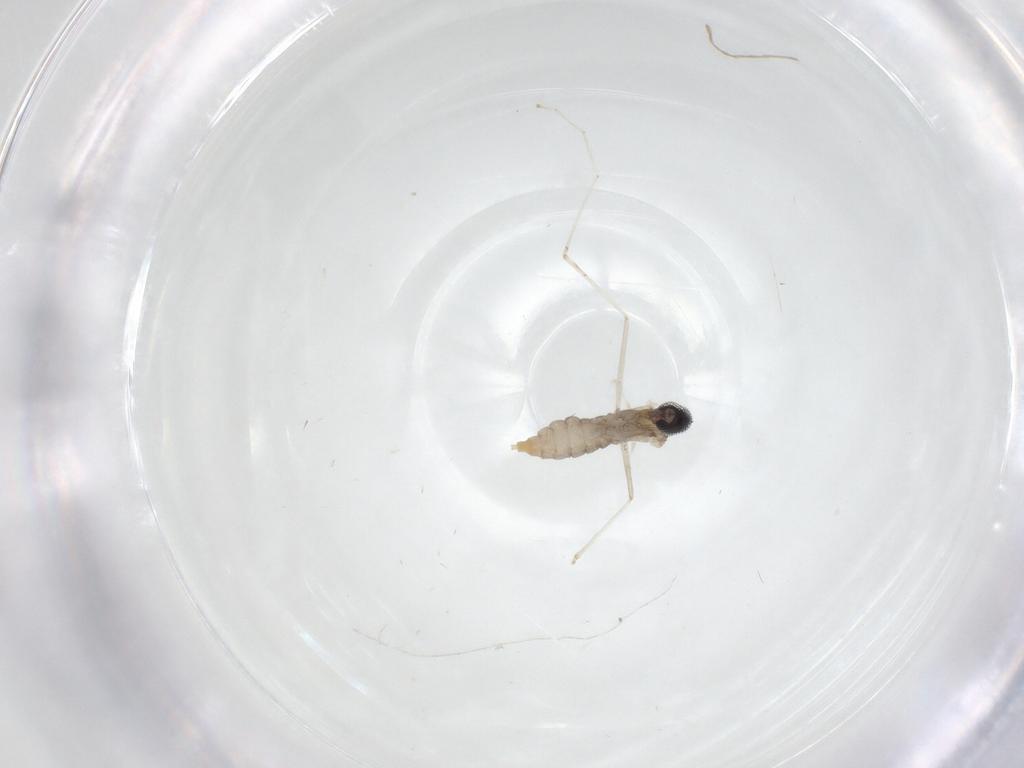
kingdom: Animalia
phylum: Arthropoda
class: Insecta
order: Diptera
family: Cecidomyiidae
